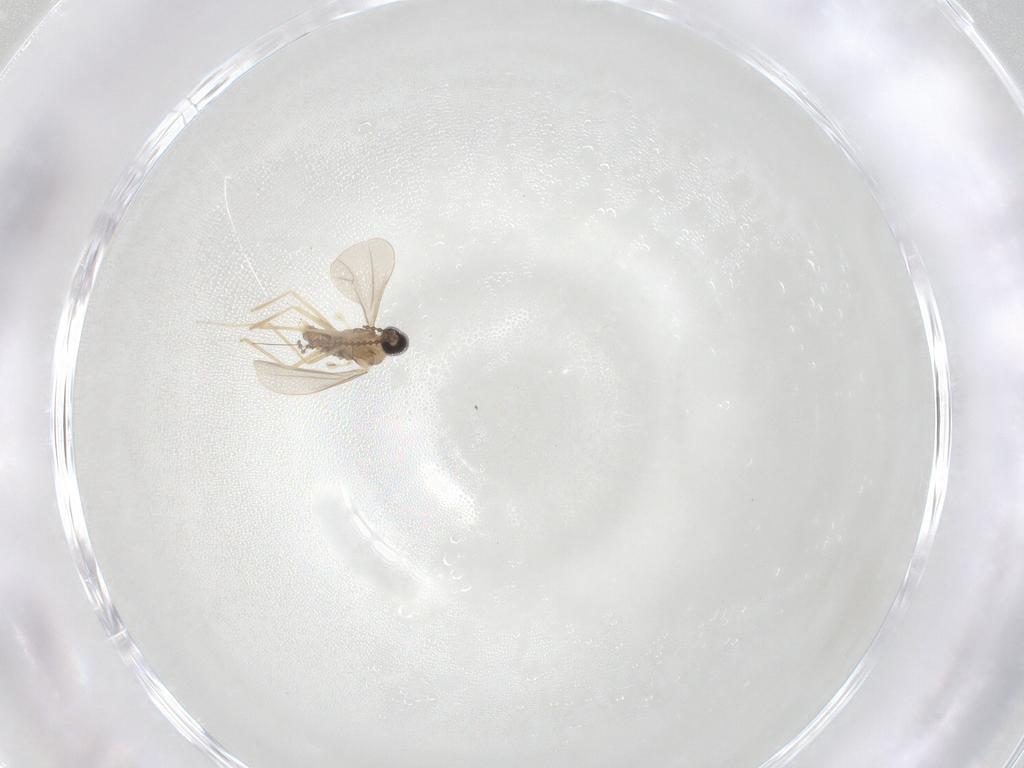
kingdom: Animalia
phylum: Arthropoda
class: Insecta
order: Diptera
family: Cecidomyiidae
